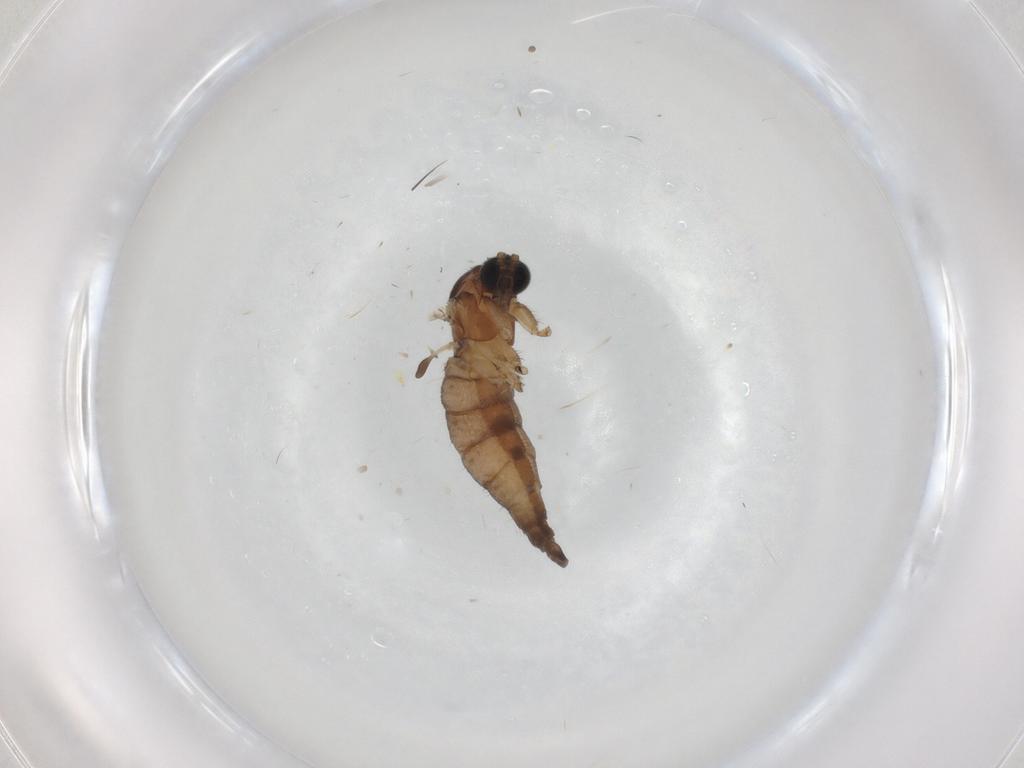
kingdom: Animalia
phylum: Arthropoda
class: Insecta
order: Diptera
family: Sciaridae
